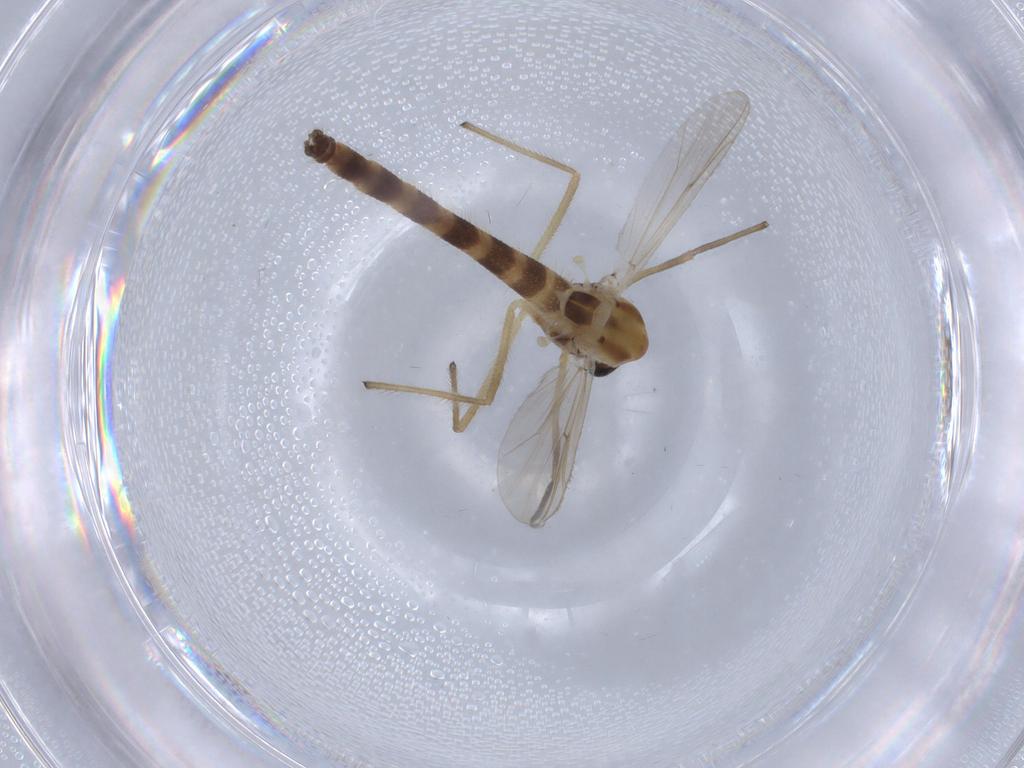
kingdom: Animalia
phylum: Arthropoda
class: Insecta
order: Diptera
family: Chironomidae
